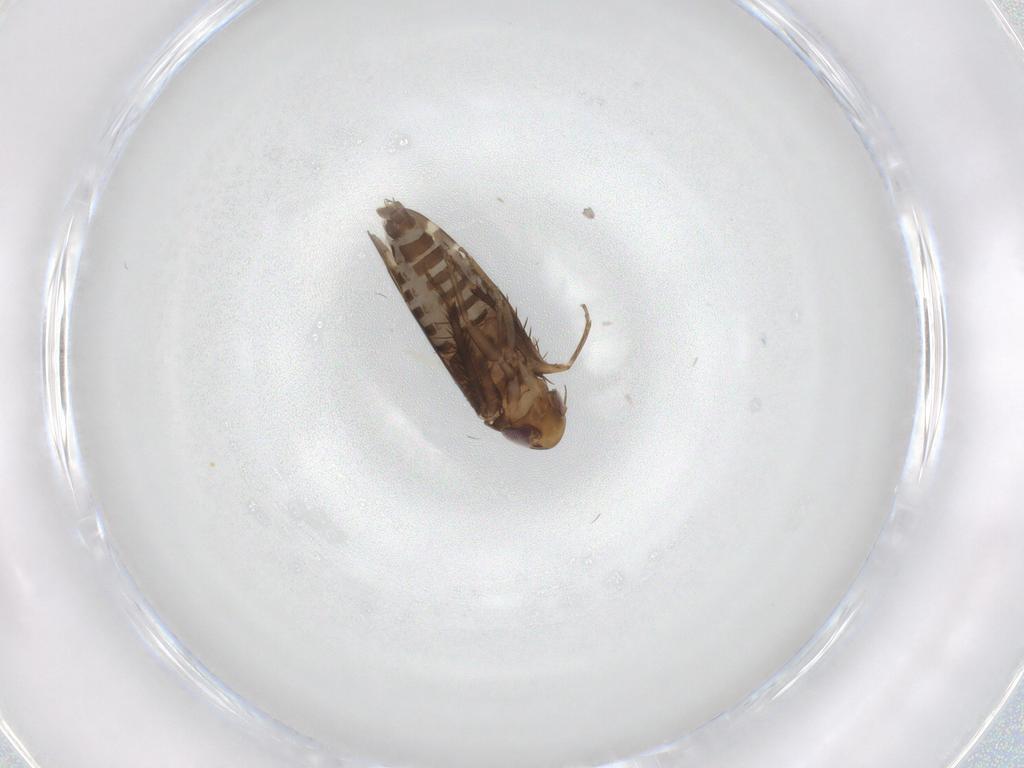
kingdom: Animalia
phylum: Arthropoda
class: Insecta
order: Hemiptera
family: Cicadellidae
